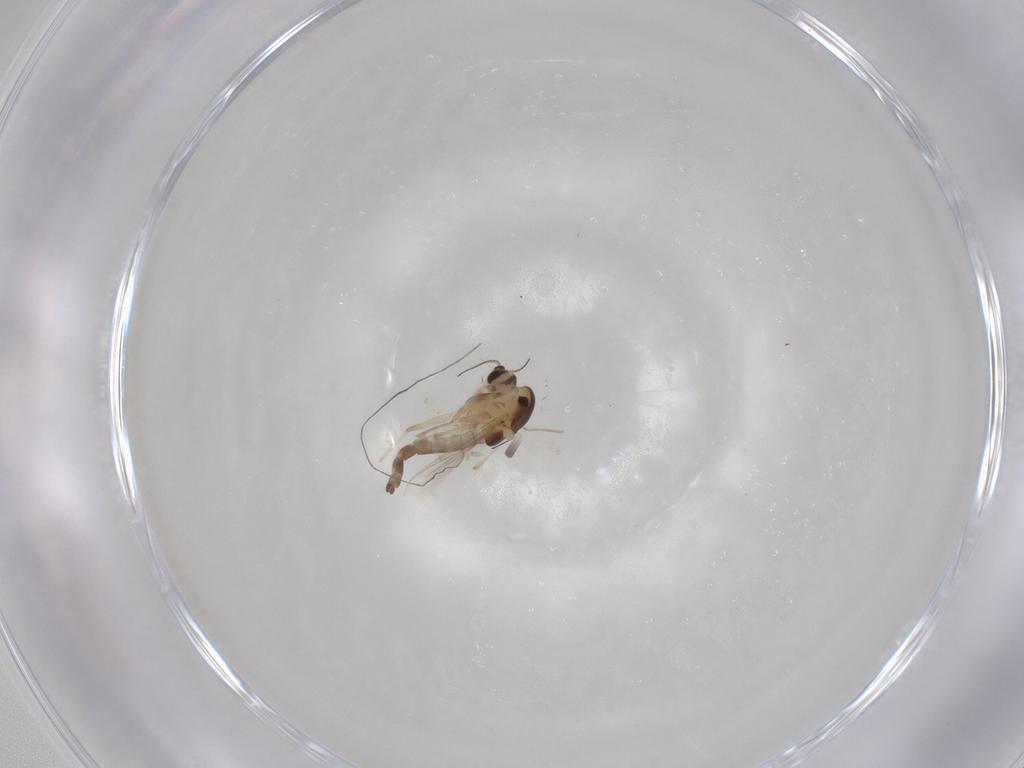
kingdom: Animalia
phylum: Arthropoda
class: Insecta
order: Diptera
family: Chironomidae
